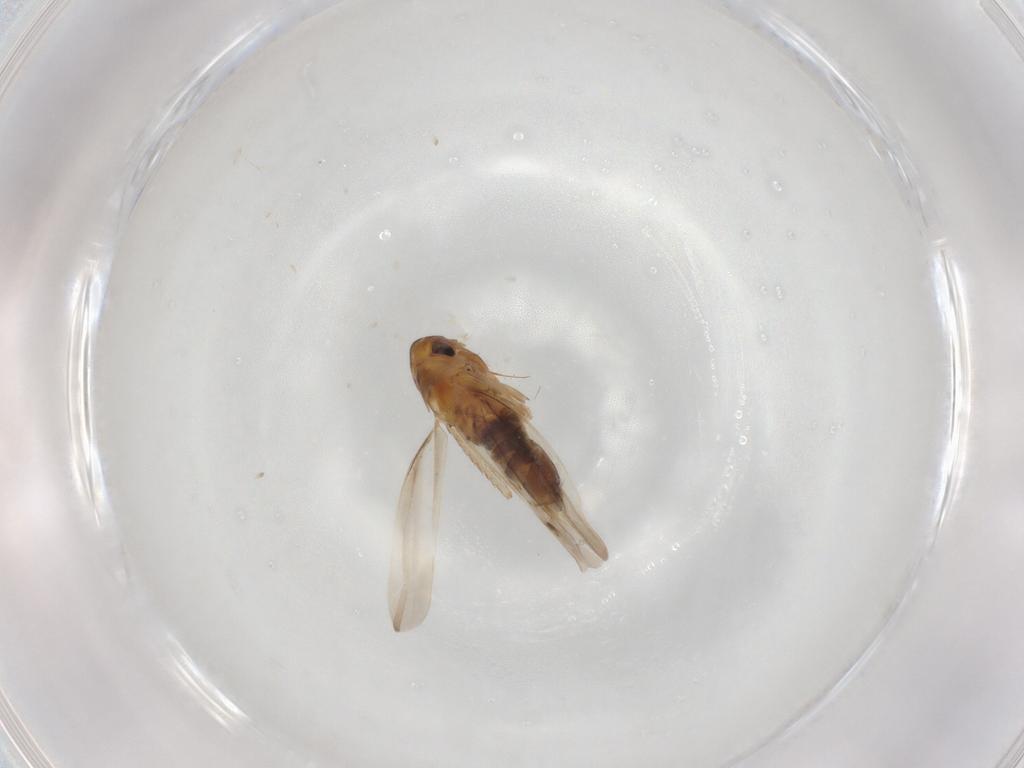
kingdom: Animalia
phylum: Arthropoda
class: Insecta
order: Hemiptera
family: Cicadellidae
